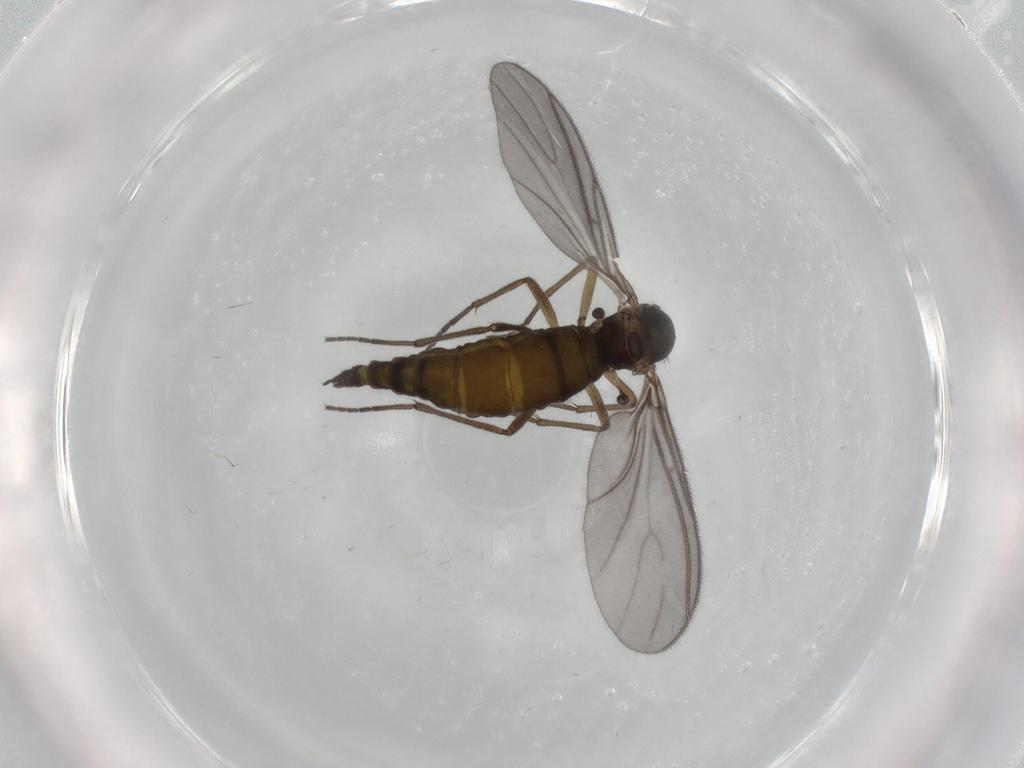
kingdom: Animalia
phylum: Arthropoda
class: Insecta
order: Diptera
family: Sciaridae
